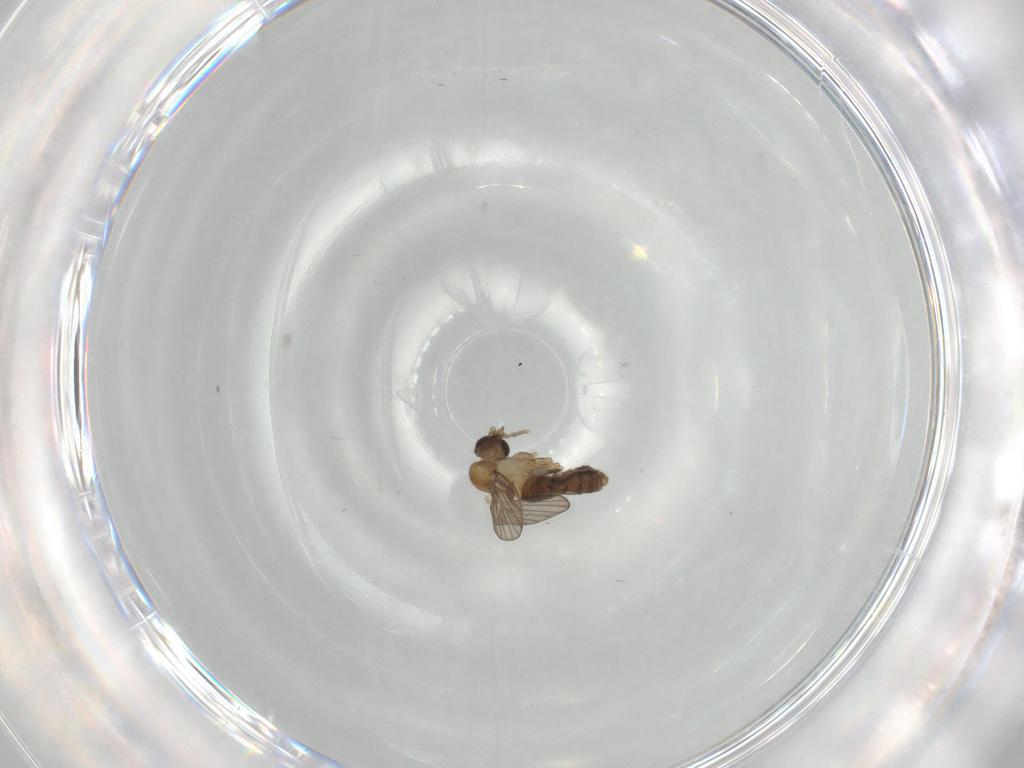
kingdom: Animalia
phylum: Arthropoda
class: Insecta
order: Diptera
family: Keroplatidae
